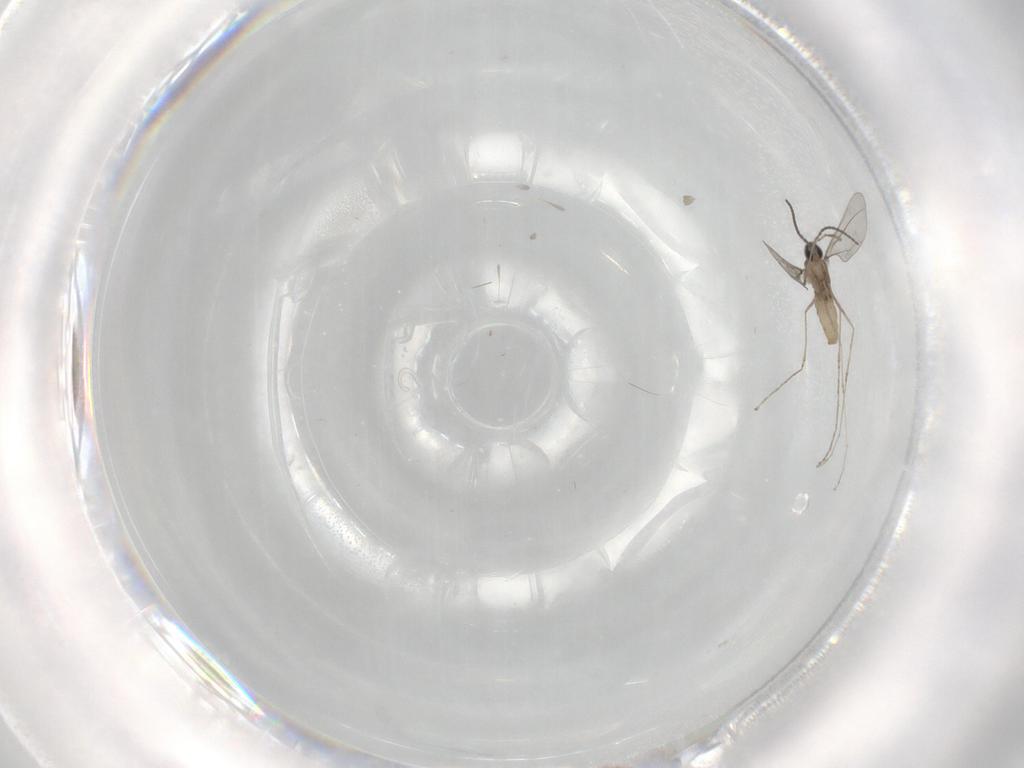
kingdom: Animalia
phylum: Arthropoda
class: Insecta
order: Diptera
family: Cecidomyiidae
